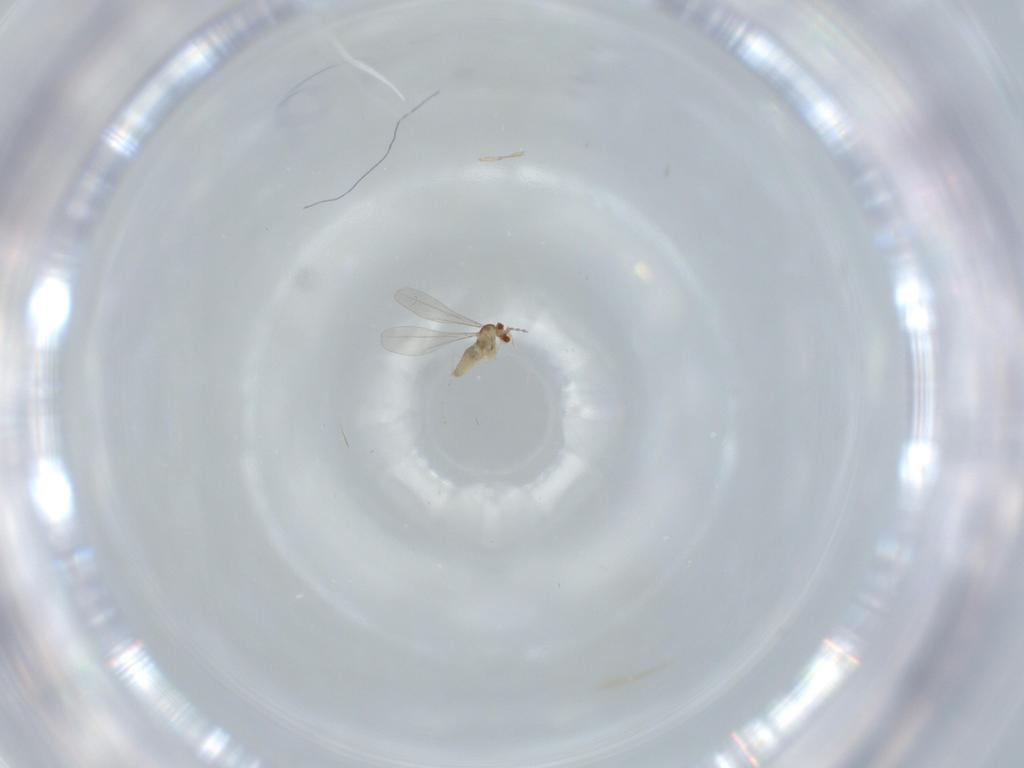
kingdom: Animalia
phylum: Arthropoda
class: Insecta
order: Diptera
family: Cecidomyiidae
